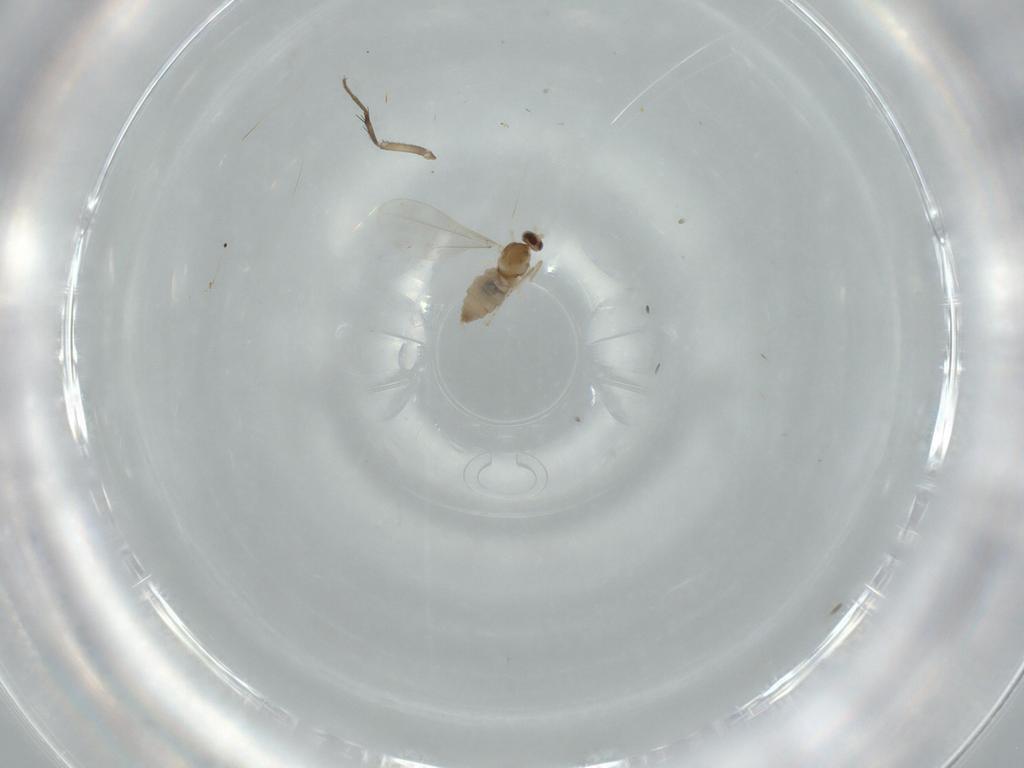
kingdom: Animalia
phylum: Arthropoda
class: Insecta
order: Diptera
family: Cecidomyiidae
